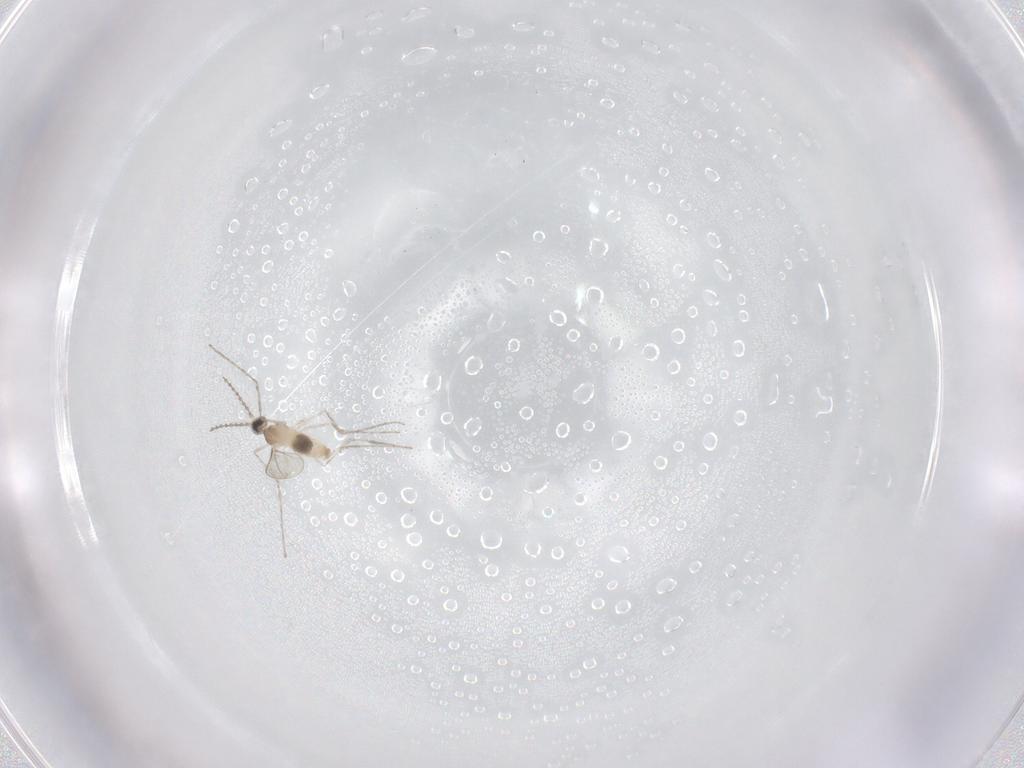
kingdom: Animalia
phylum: Arthropoda
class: Insecta
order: Diptera
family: Cecidomyiidae
